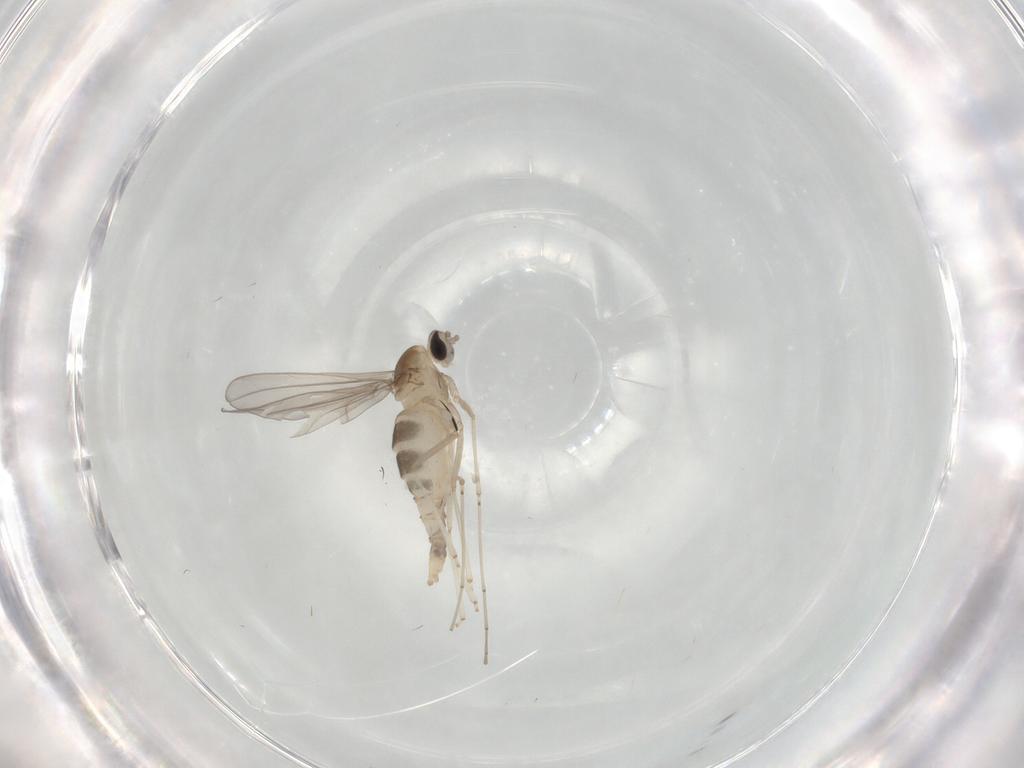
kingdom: Animalia
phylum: Arthropoda
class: Insecta
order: Diptera
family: Cecidomyiidae
